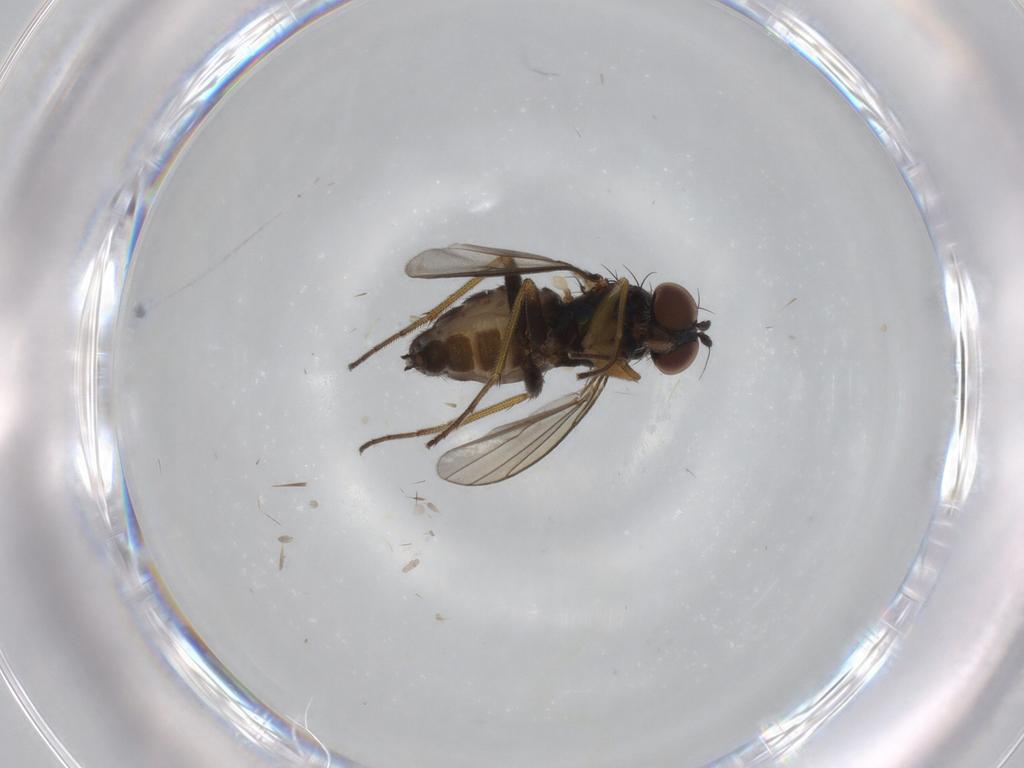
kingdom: Animalia
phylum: Arthropoda
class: Insecta
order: Diptera
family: Dolichopodidae
